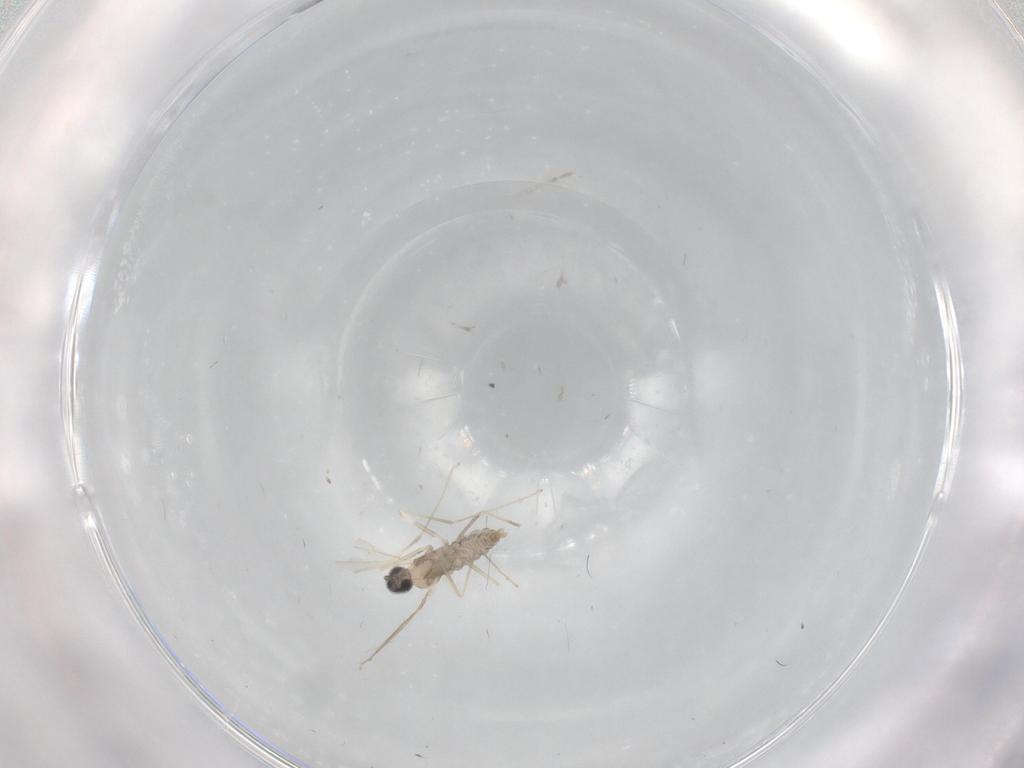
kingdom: Animalia
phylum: Arthropoda
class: Insecta
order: Diptera
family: Cecidomyiidae
